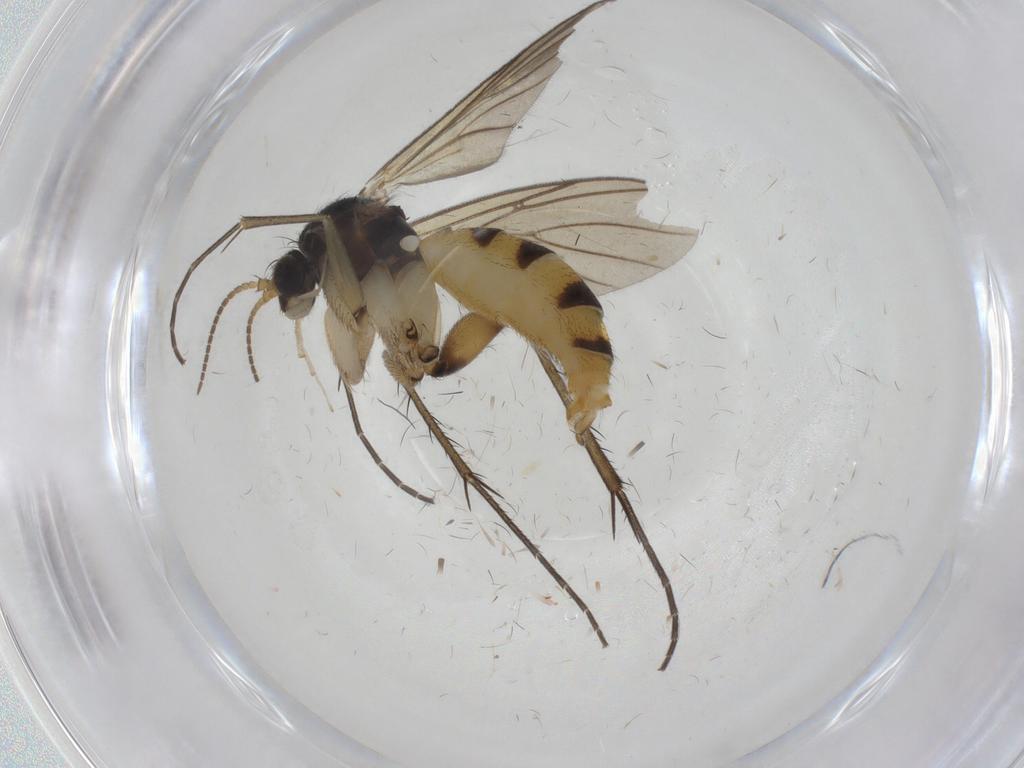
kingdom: Animalia
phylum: Arthropoda
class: Insecta
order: Diptera
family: Mycetophilidae
